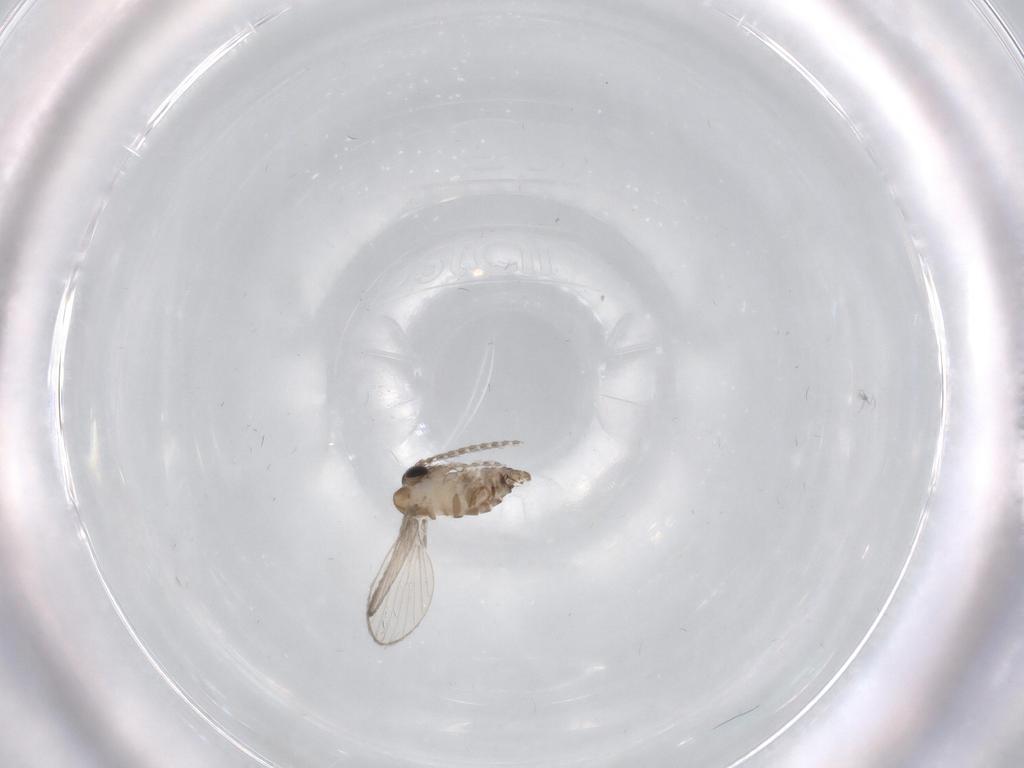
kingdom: Animalia
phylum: Arthropoda
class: Insecta
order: Diptera
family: Psychodidae
